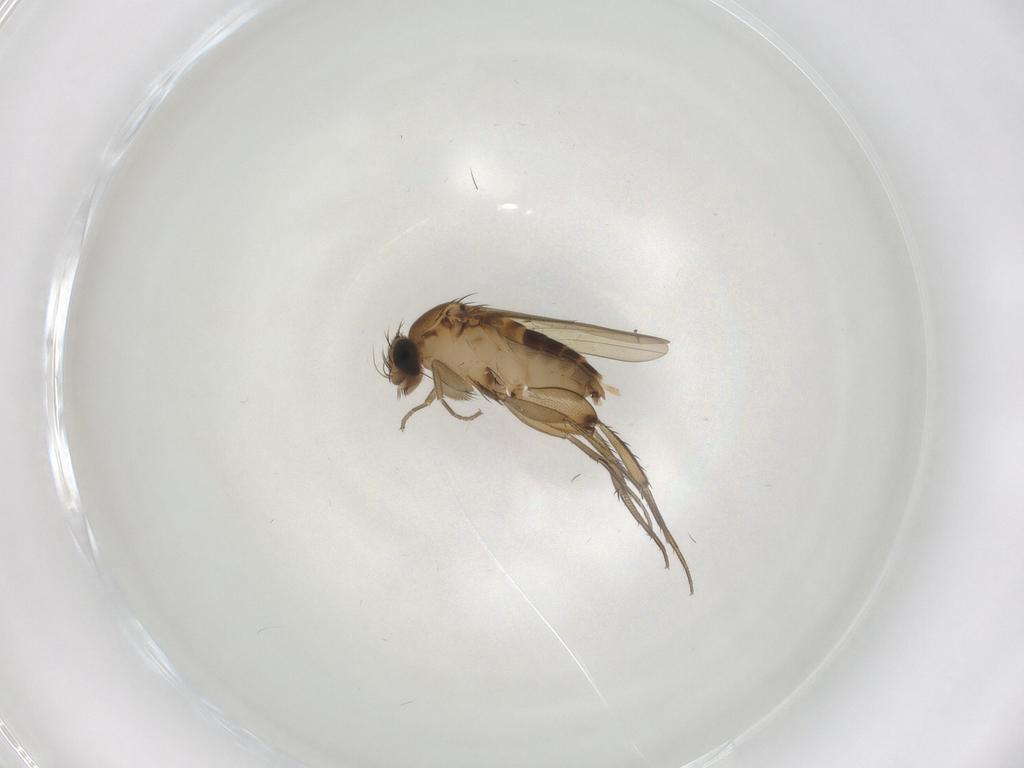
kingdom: Animalia
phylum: Arthropoda
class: Insecta
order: Diptera
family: Phoridae
